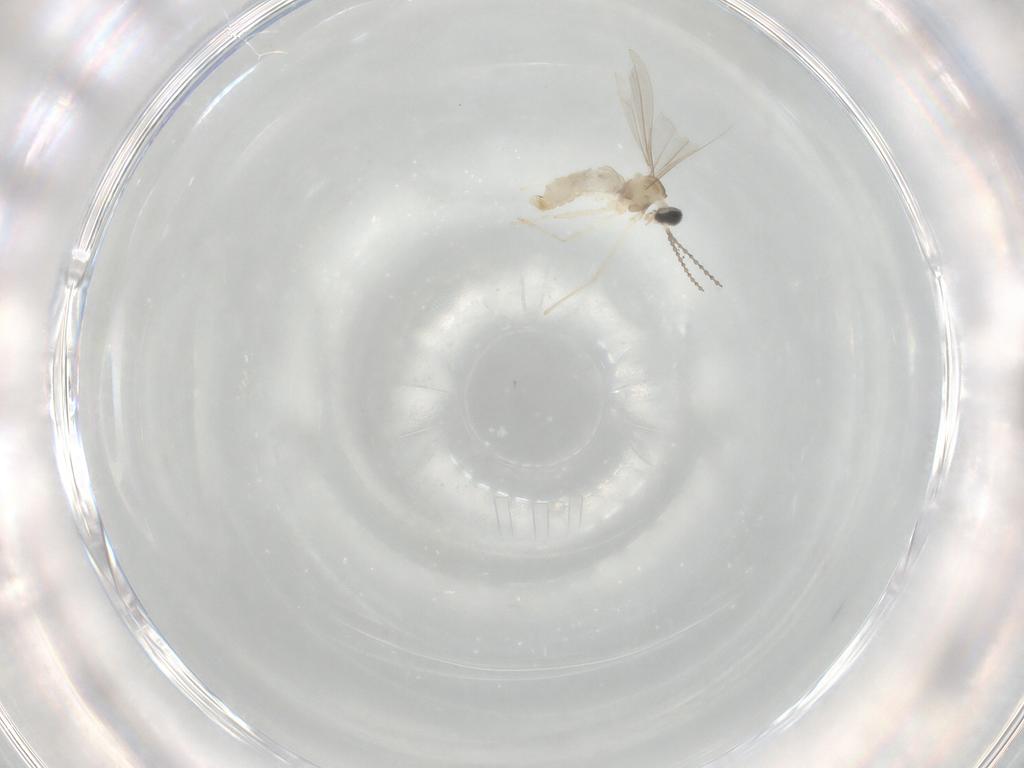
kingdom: Animalia
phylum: Arthropoda
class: Insecta
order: Diptera
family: Cecidomyiidae
